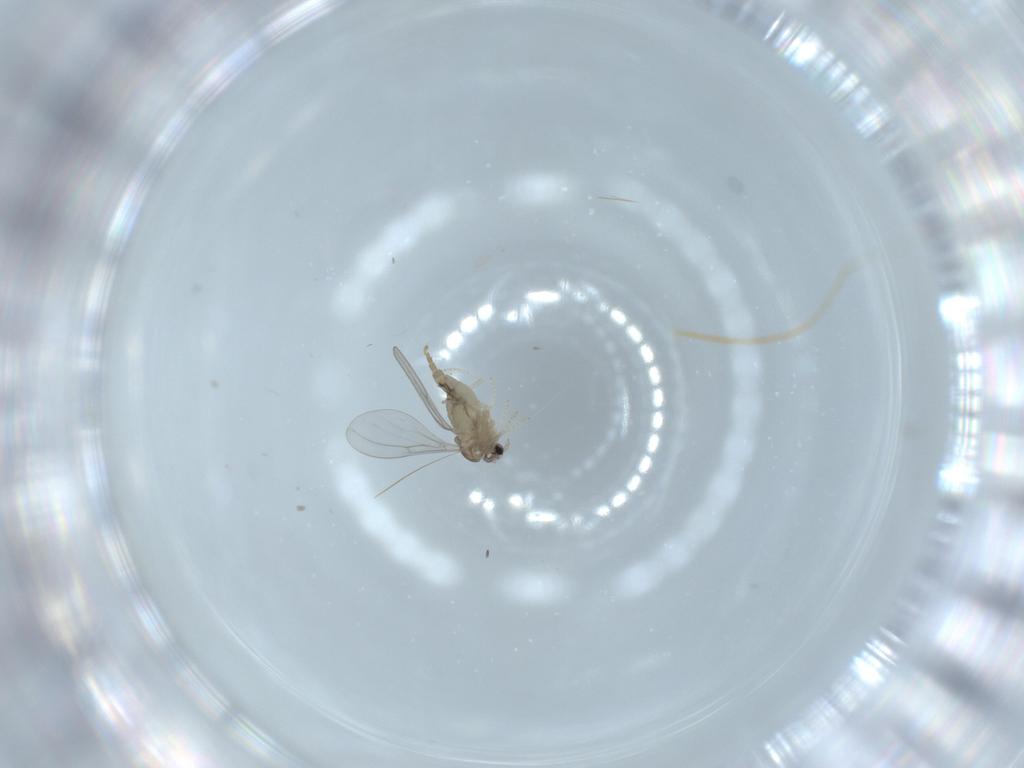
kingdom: Animalia
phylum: Arthropoda
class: Insecta
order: Diptera
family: Cecidomyiidae
